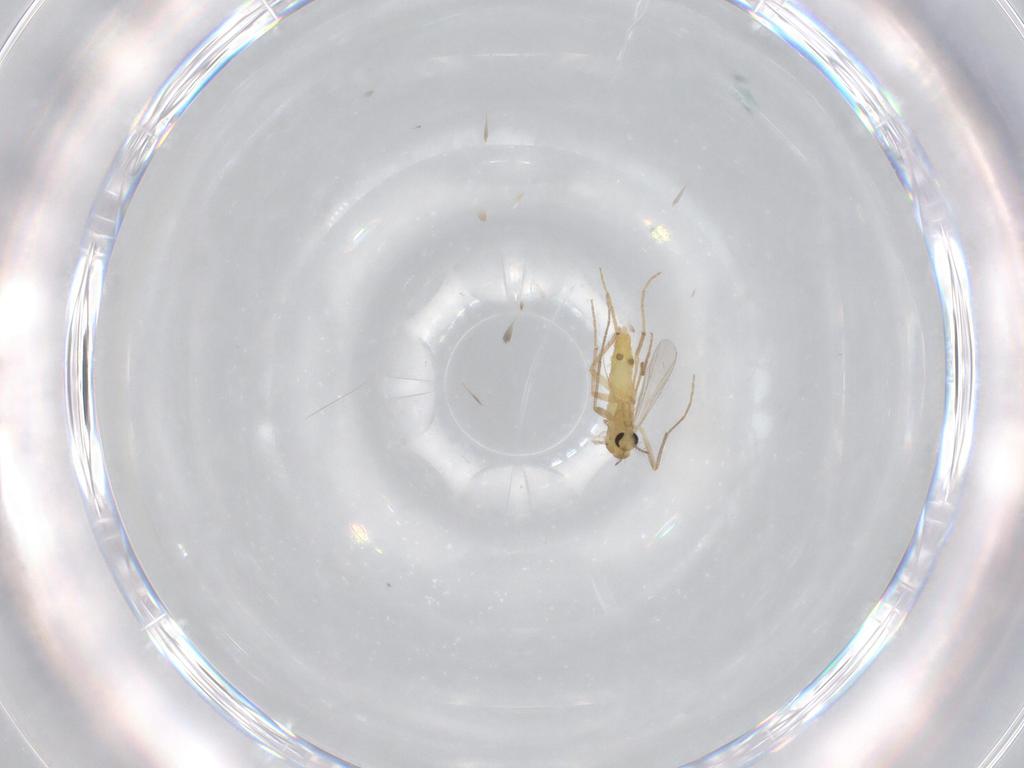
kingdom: Animalia
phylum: Arthropoda
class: Insecta
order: Diptera
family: Chironomidae
